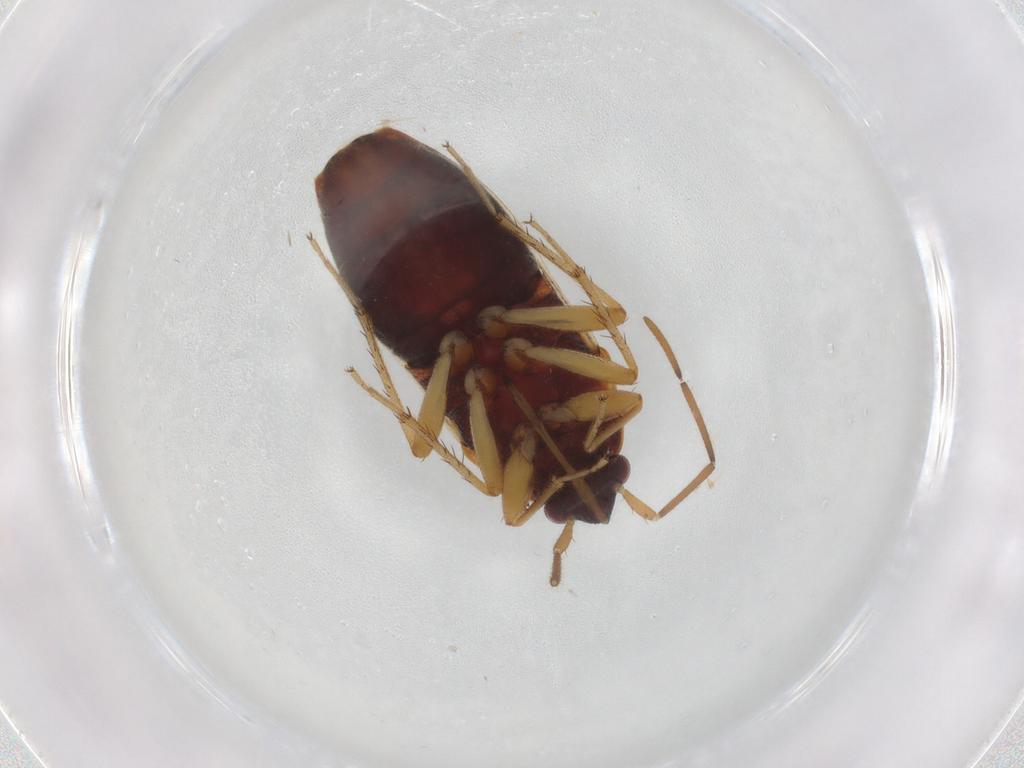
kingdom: Animalia
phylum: Arthropoda
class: Insecta
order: Hemiptera
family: Rhyparochromidae
